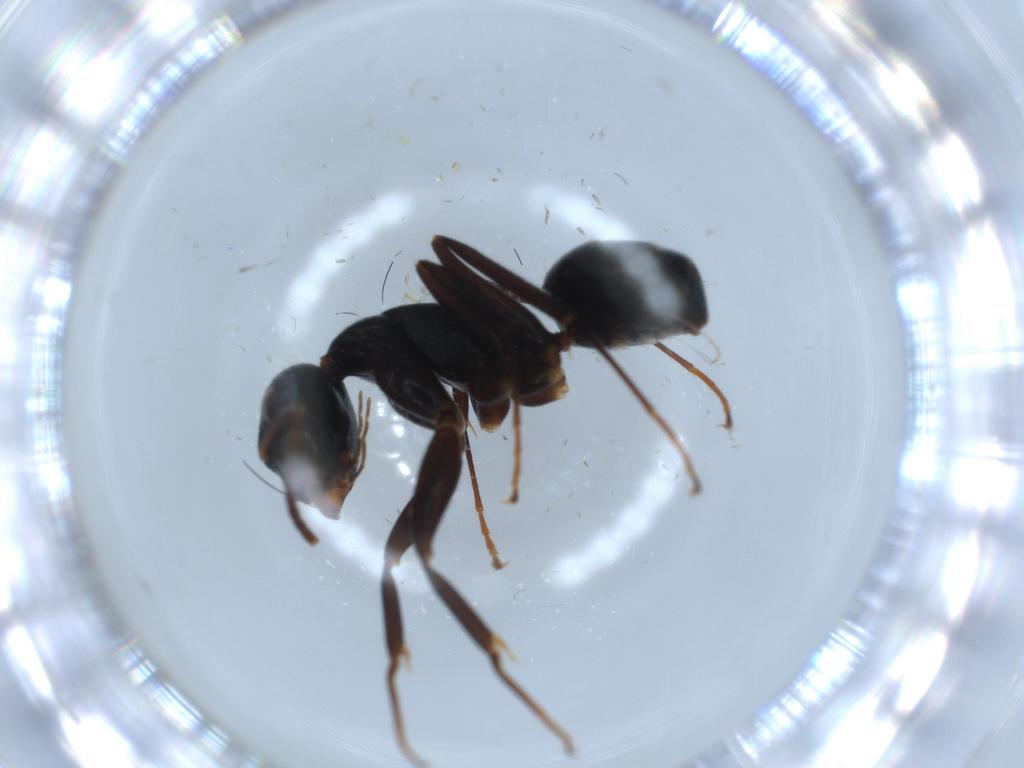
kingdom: Animalia
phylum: Arthropoda
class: Insecta
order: Hymenoptera
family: Formicidae
